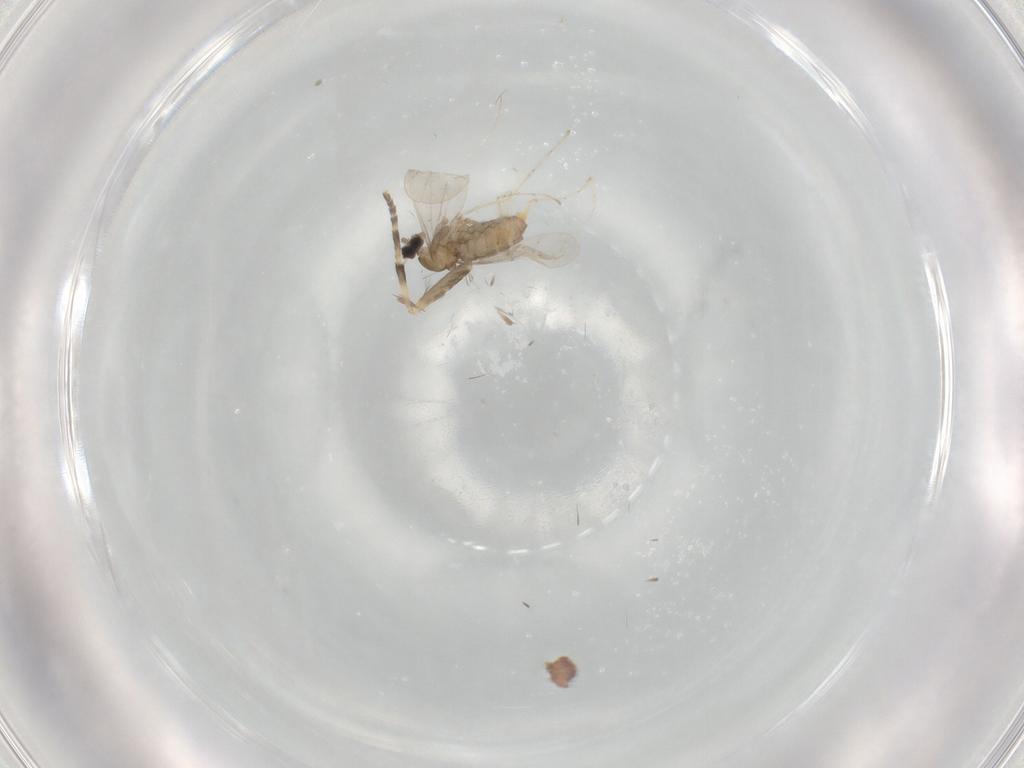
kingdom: Animalia
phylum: Arthropoda
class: Insecta
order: Diptera
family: Psychodidae
